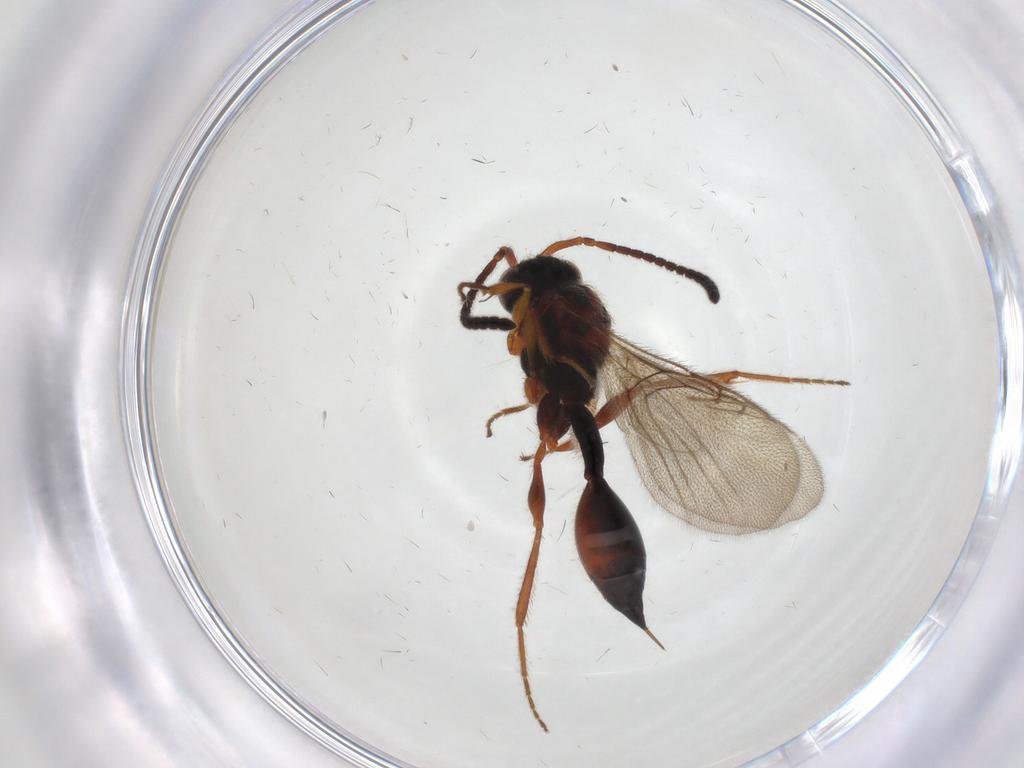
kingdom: Animalia
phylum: Arthropoda
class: Insecta
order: Hymenoptera
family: Diapriidae
